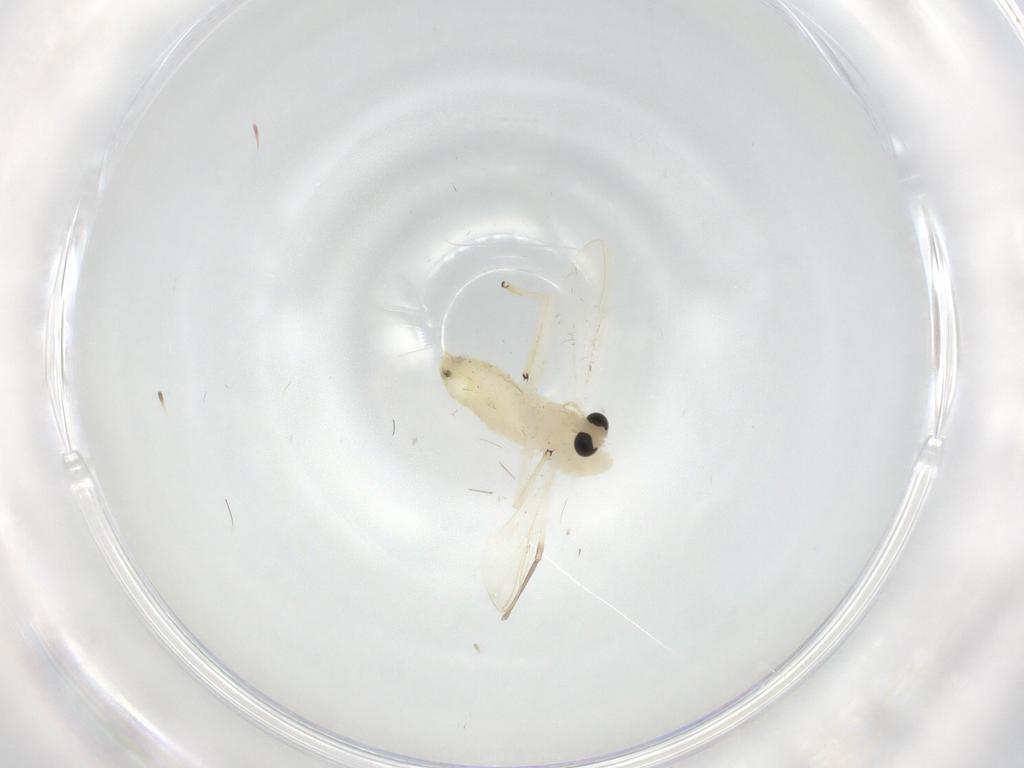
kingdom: Animalia
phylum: Arthropoda
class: Insecta
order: Diptera
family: Chironomidae
